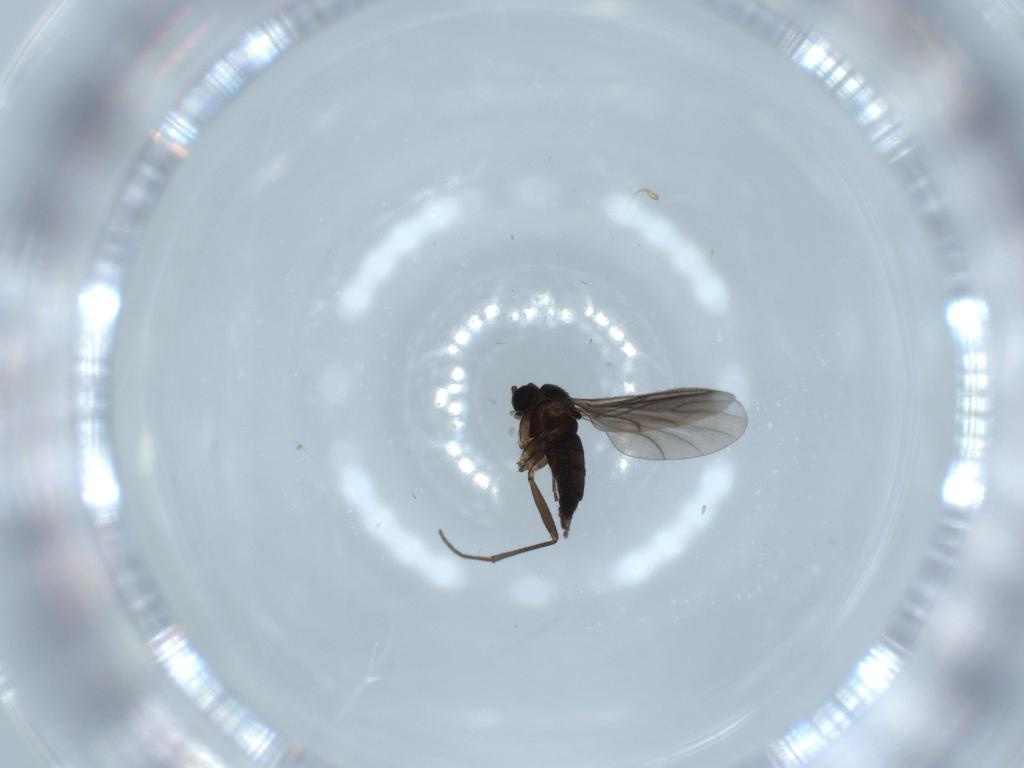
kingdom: Animalia
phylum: Arthropoda
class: Insecta
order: Diptera
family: Sciaridae
